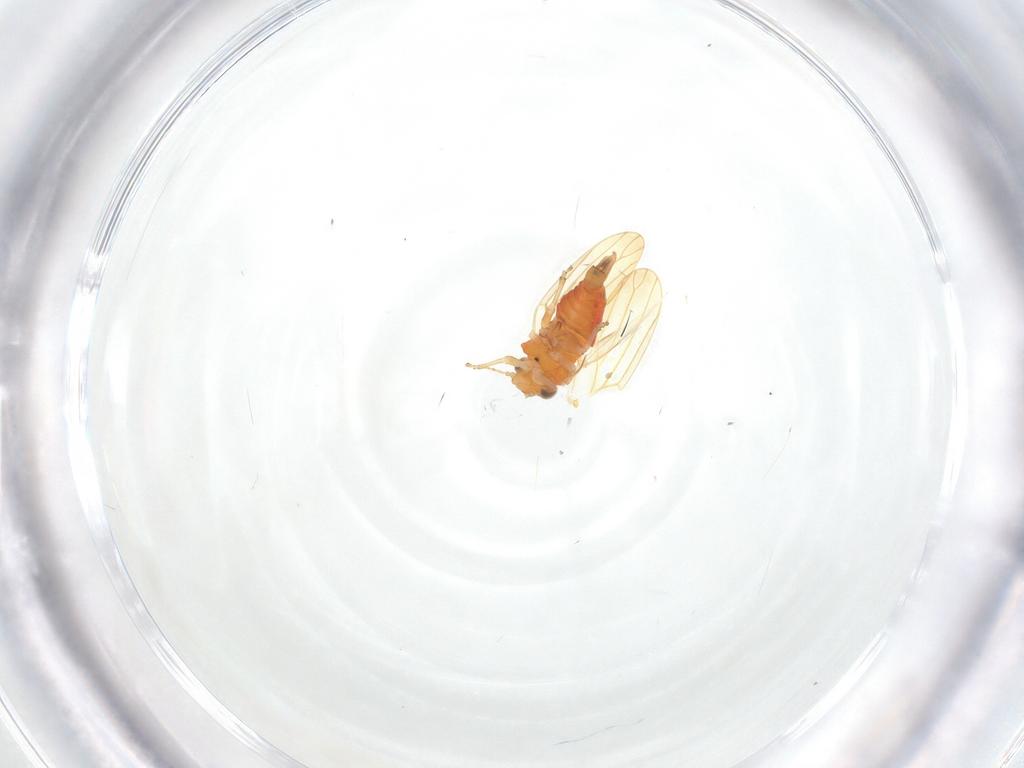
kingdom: Animalia
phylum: Arthropoda
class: Insecta
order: Hemiptera
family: Aphalaridae
